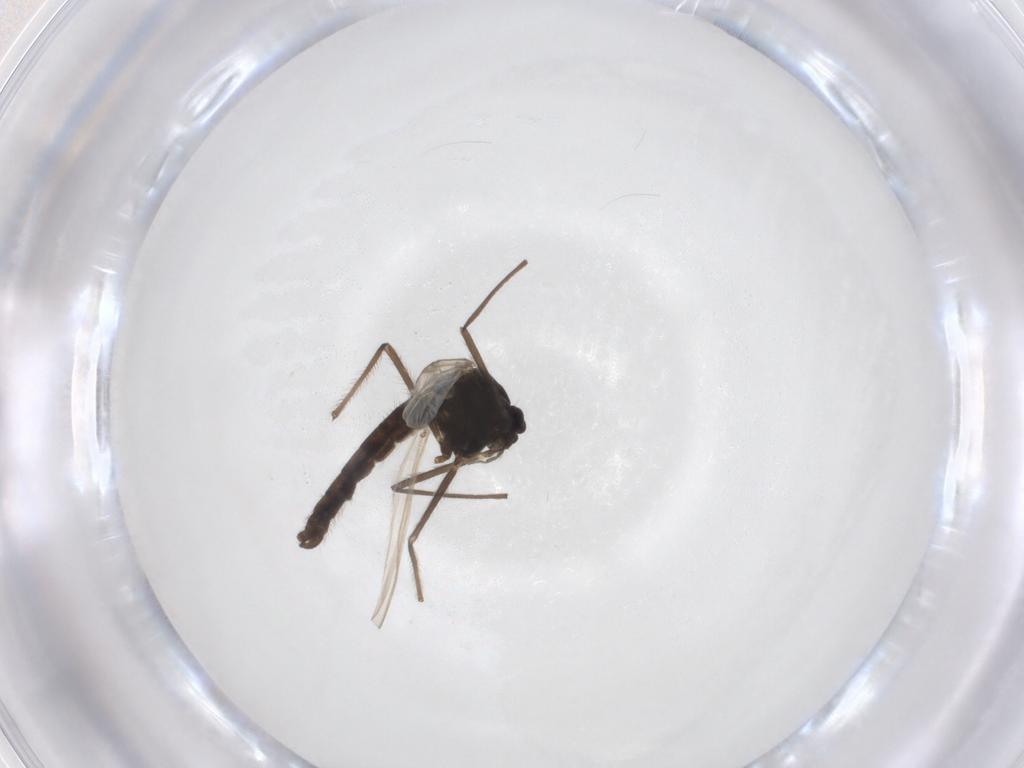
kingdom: Animalia
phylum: Arthropoda
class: Insecta
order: Diptera
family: Chironomidae
